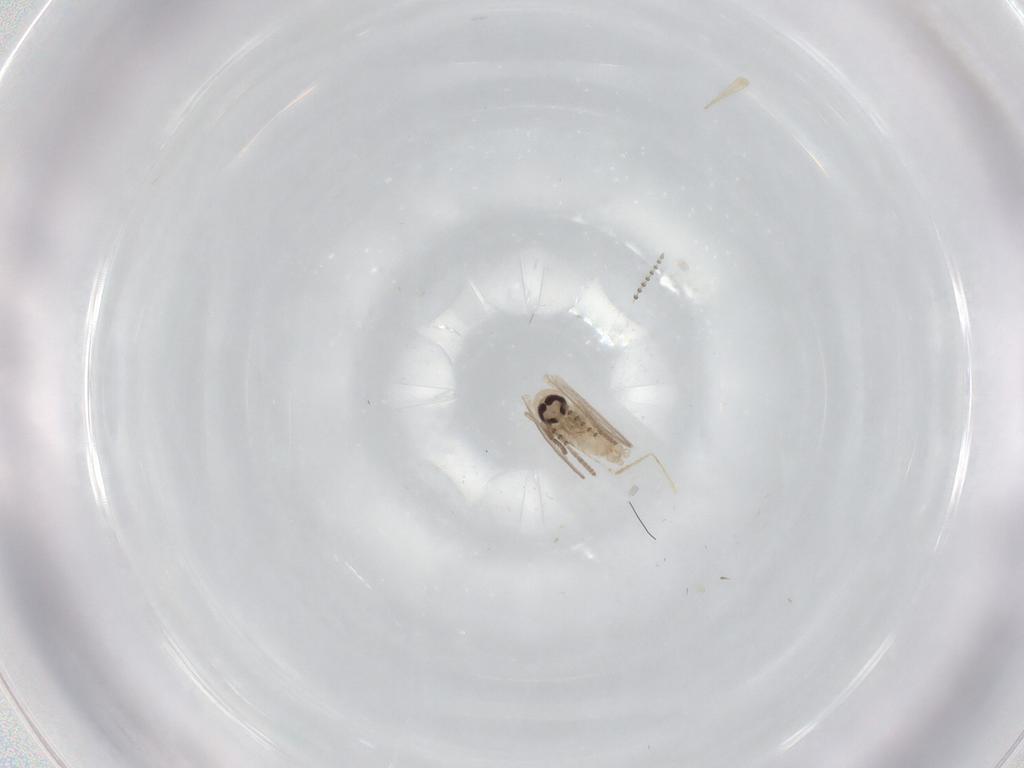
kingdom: Animalia
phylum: Arthropoda
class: Insecta
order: Diptera
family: Psychodidae
